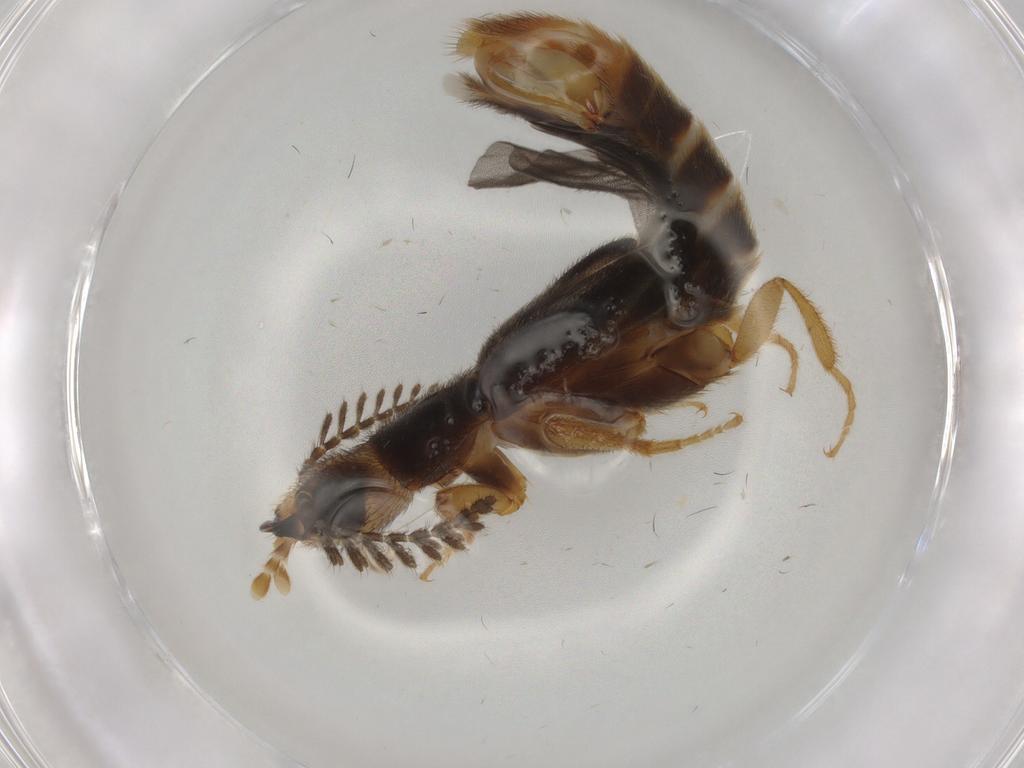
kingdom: Animalia
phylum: Arthropoda
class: Insecta
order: Coleoptera
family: Phengodidae
